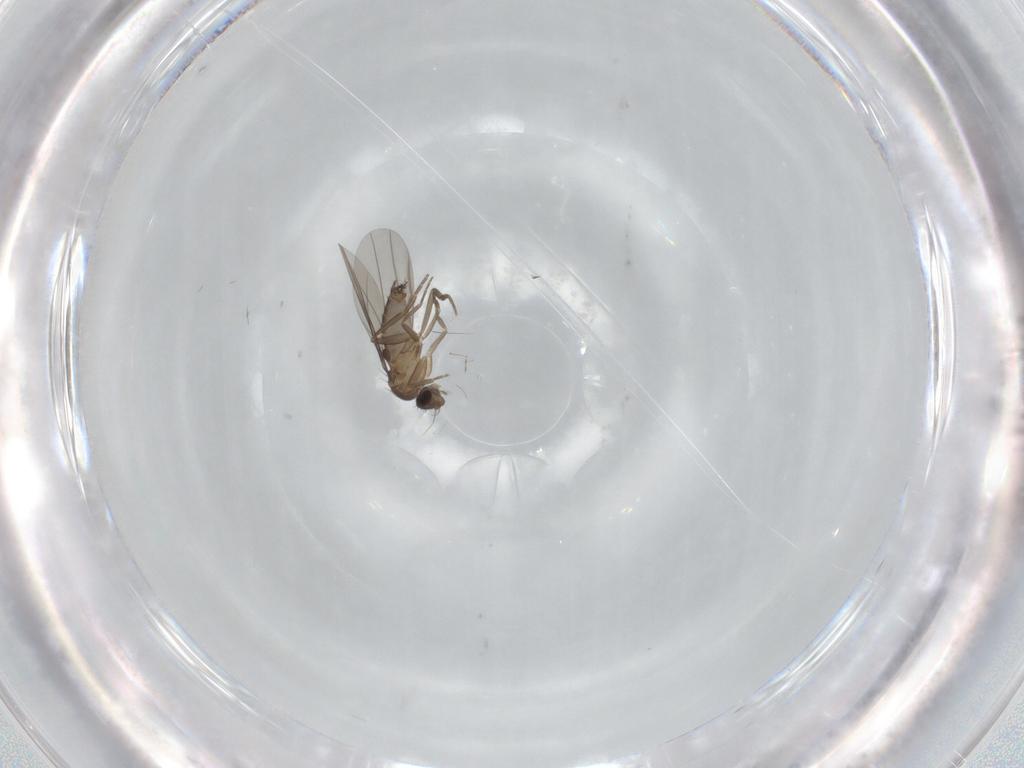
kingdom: Animalia
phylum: Arthropoda
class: Insecta
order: Diptera
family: Phoridae
